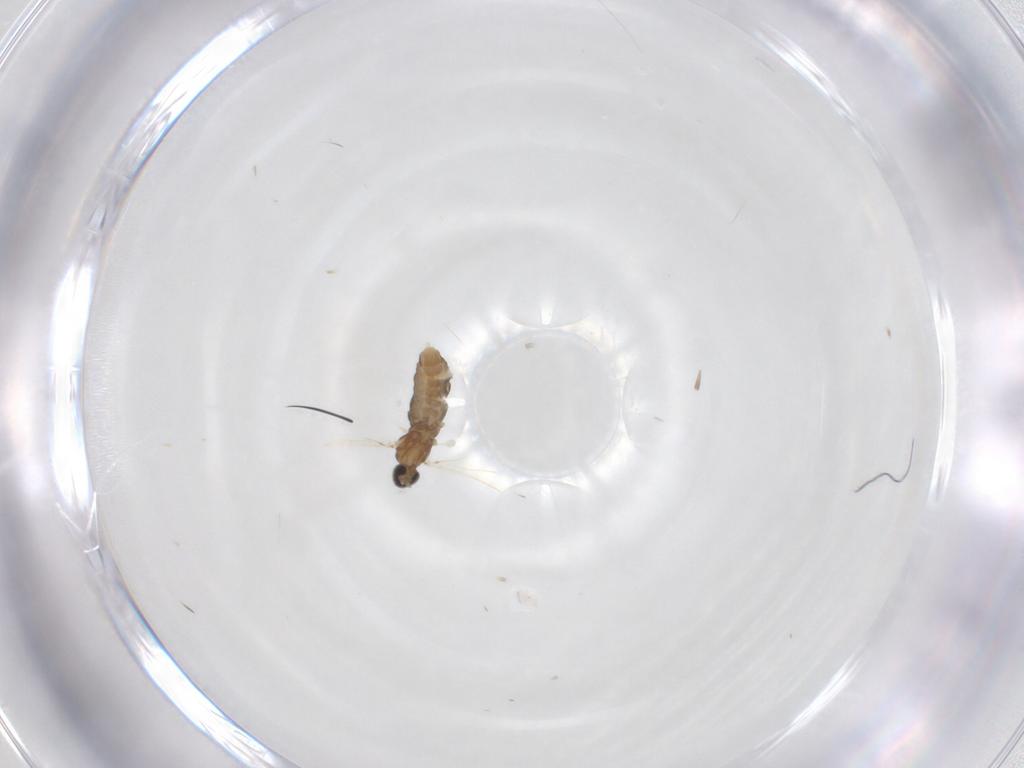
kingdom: Animalia
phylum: Arthropoda
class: Insecta
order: Diptera
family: Cecidomyiidae
